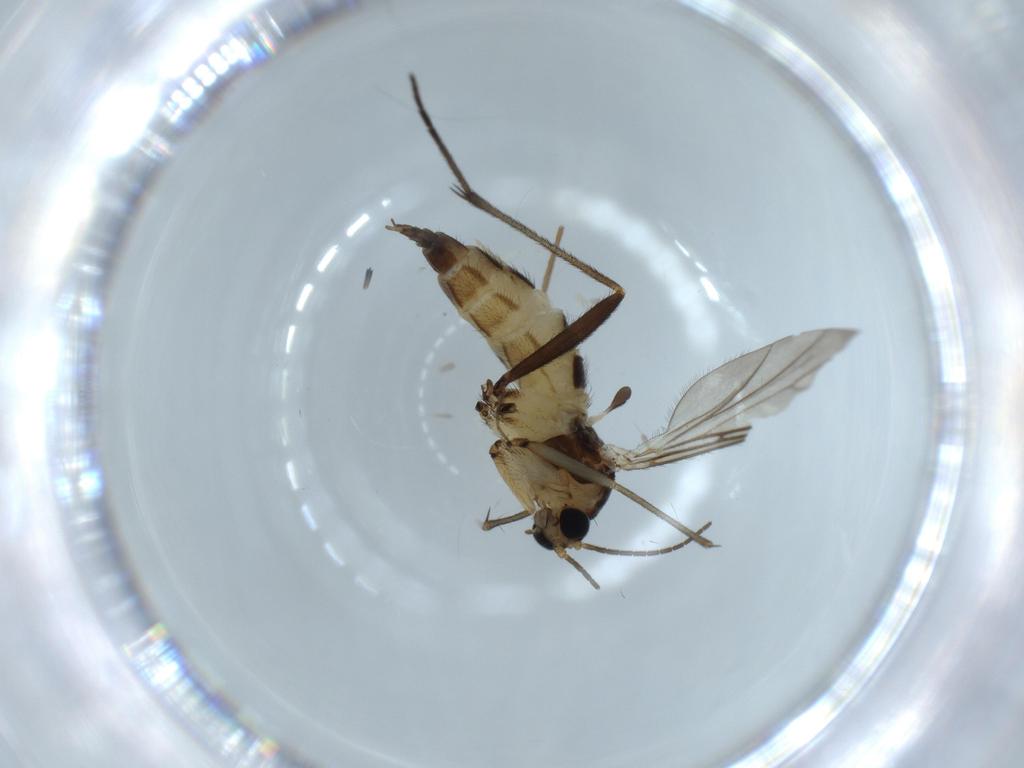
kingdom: Animalia
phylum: Arthropoda
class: Insecta
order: Diptera
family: Sciaridae
